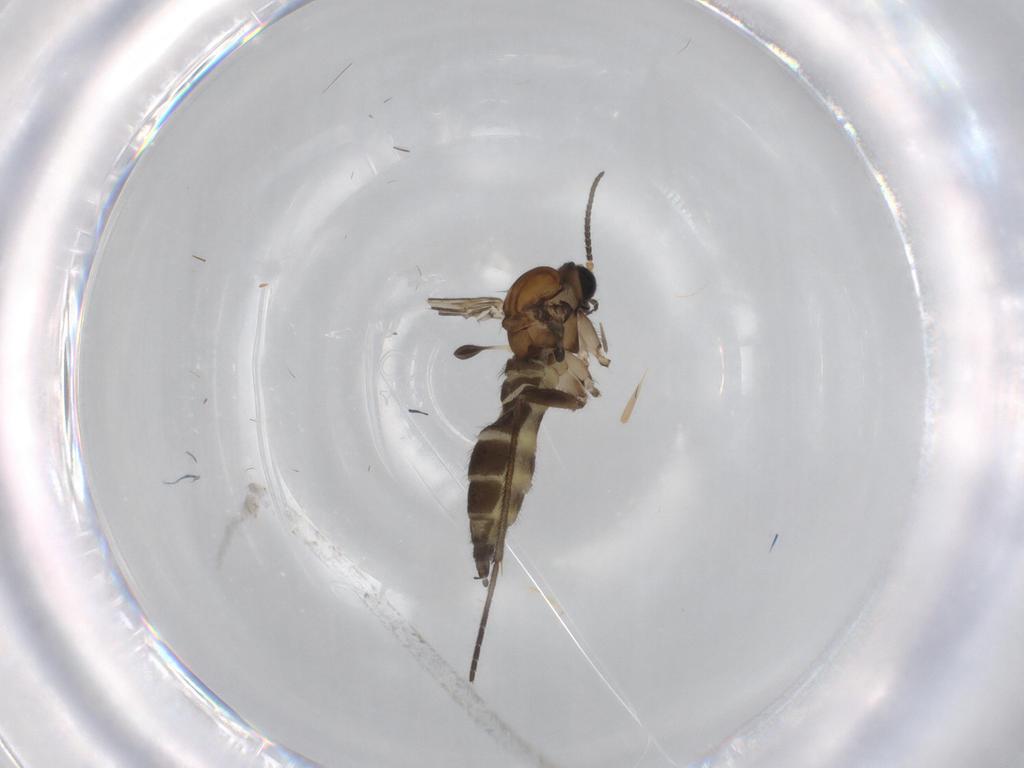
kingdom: Animalia
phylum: Arthropoda
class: Insecta
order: Diptera
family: Sciaridae
